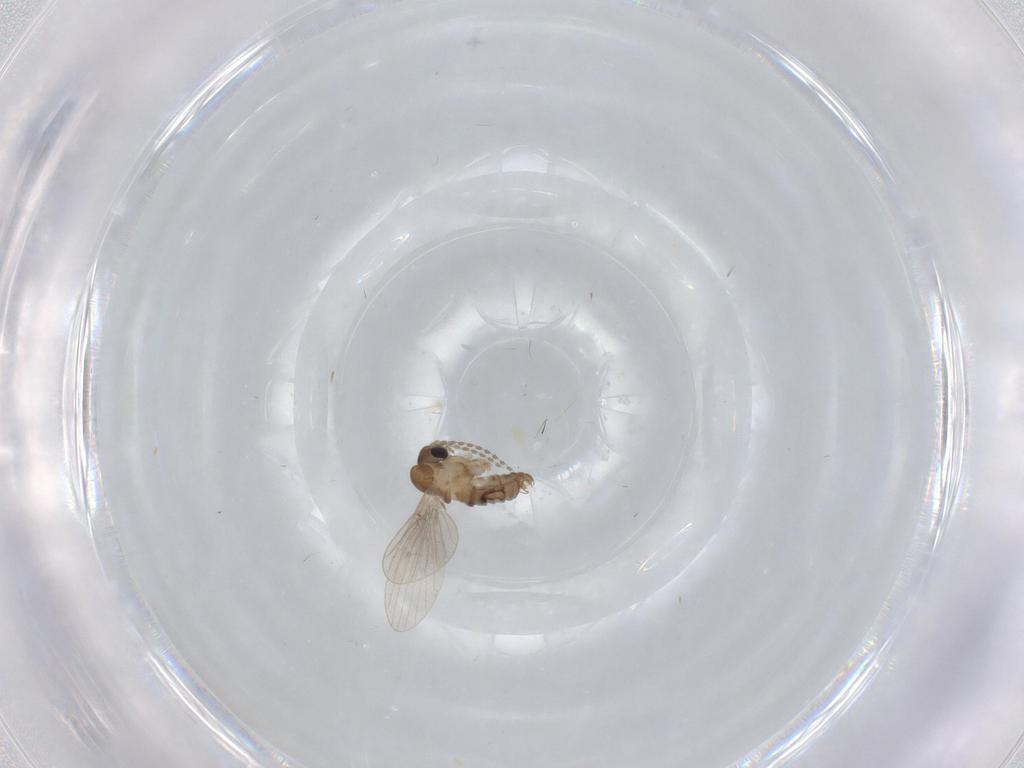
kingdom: Animalia
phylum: Arthropoda
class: Insecta
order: Diptera
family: Psychodidae
